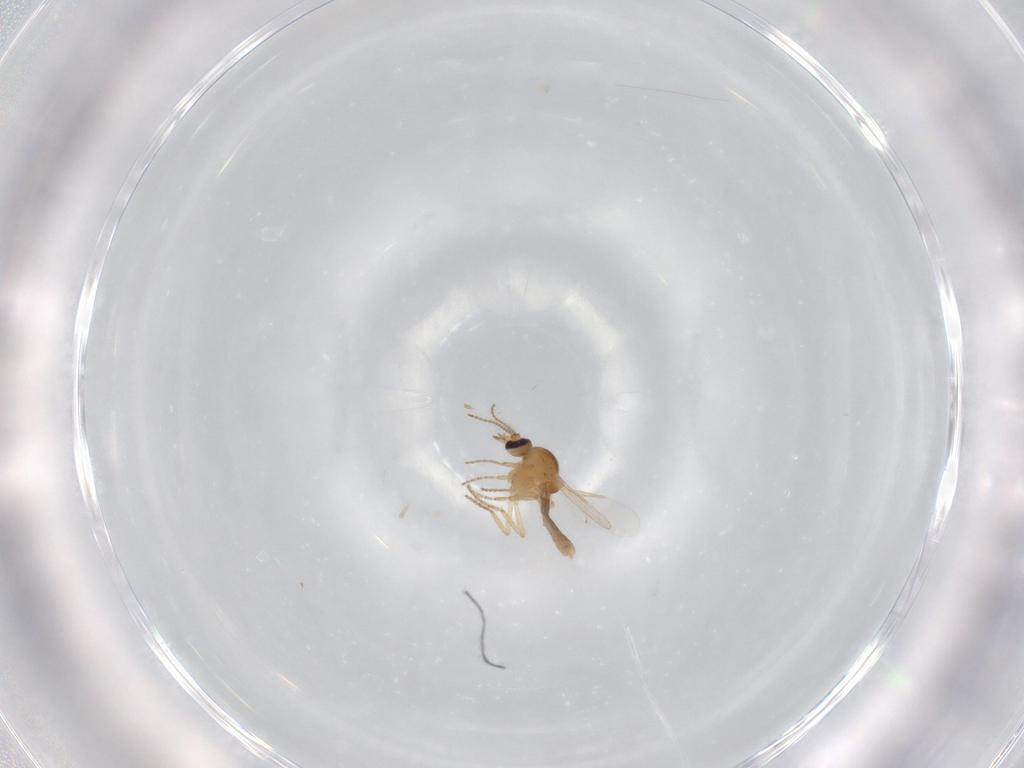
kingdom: Animalia
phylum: Arthropoda
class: Insecta
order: Diptera
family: Ceratopogonidae
